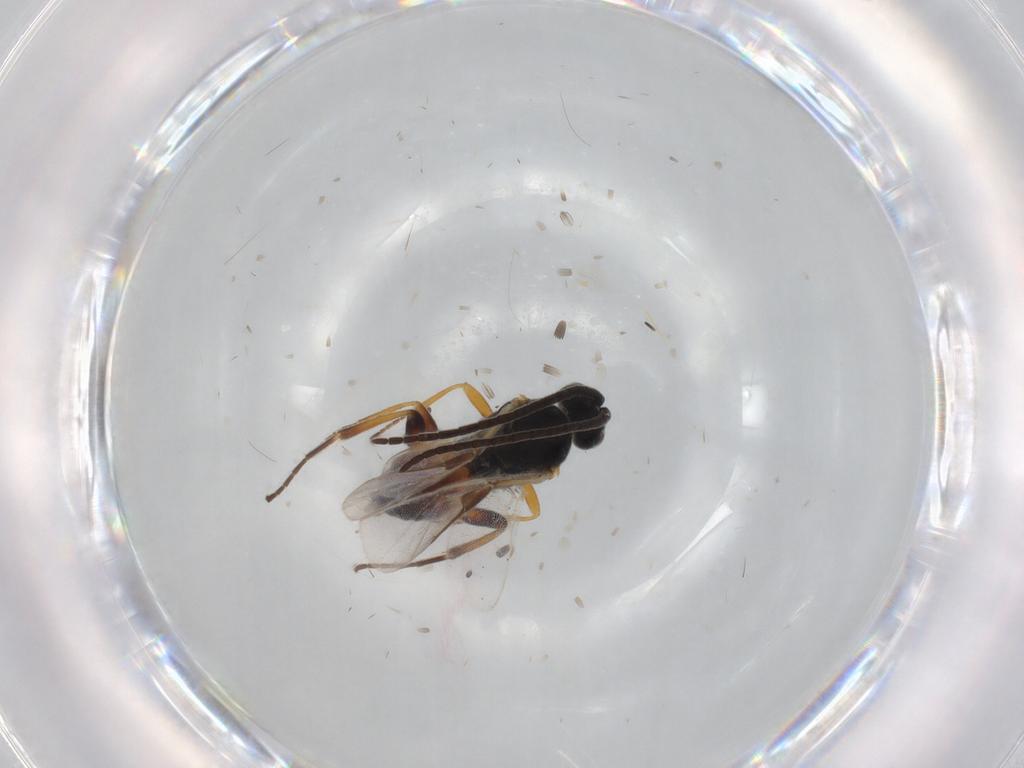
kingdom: Animalia
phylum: Arthropoda
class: Insecta
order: Hymenoptera
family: Braconidae
